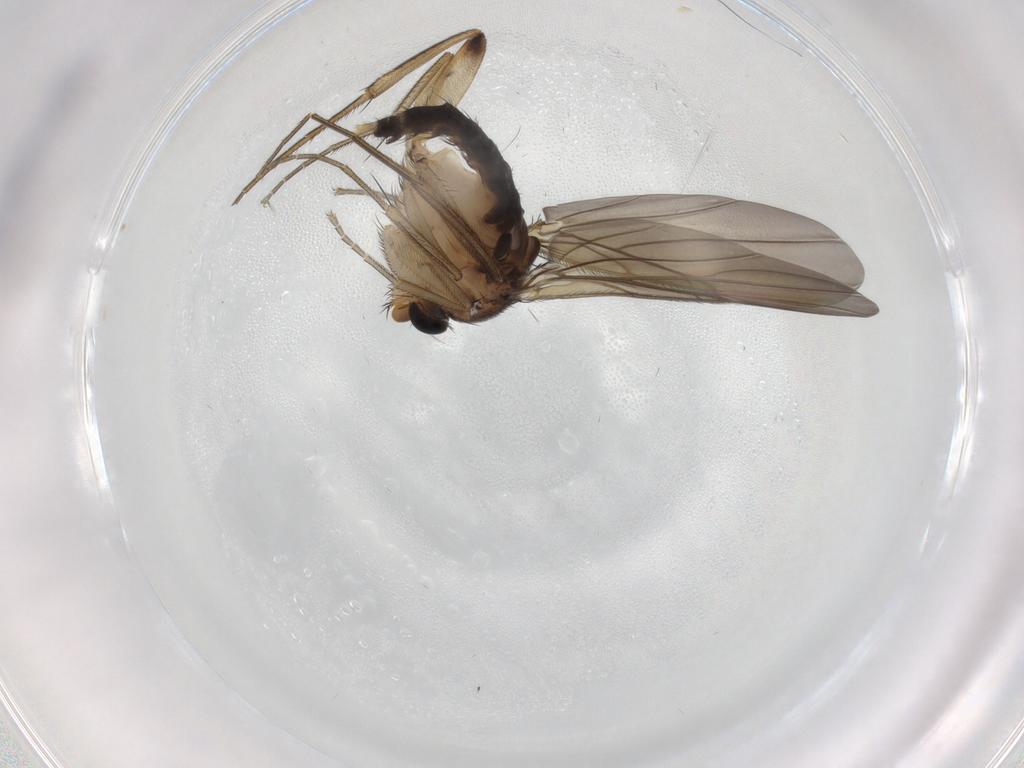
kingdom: Animalia
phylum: Arthropoda
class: Insecta
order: Diptera
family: Phoridae
